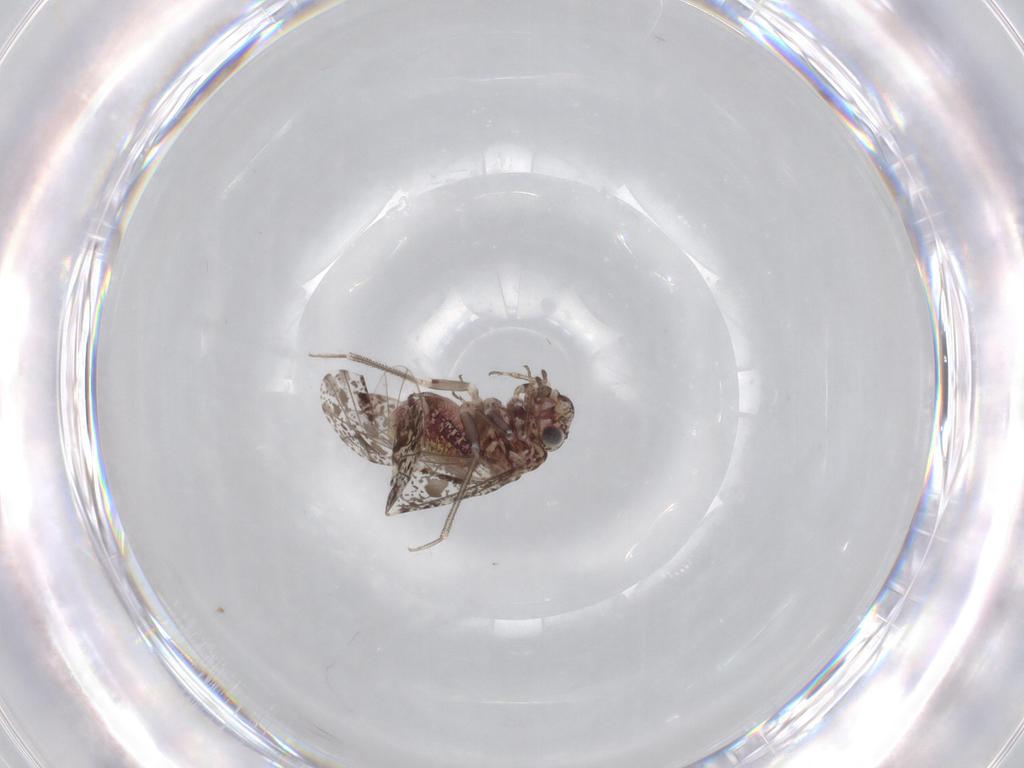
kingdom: Animalia
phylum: Arthropoda
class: Insecta
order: Psocodea
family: Psocidae
